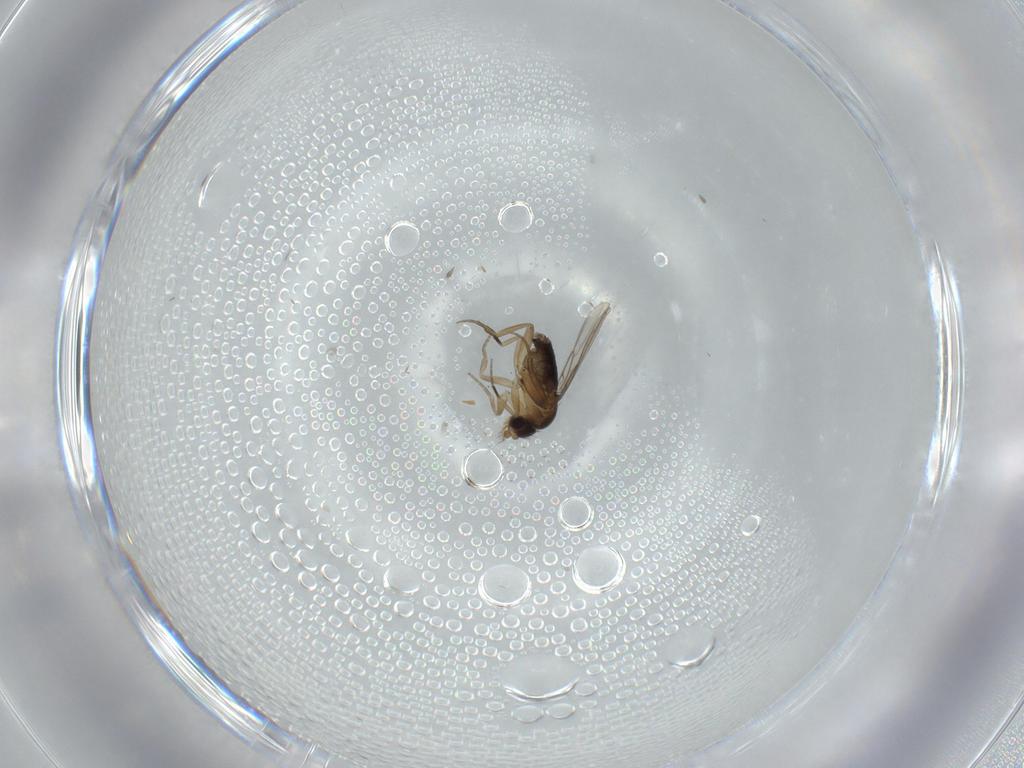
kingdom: Animalia
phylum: Arthropoda
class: Insecta
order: Diptera
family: Phoridae
